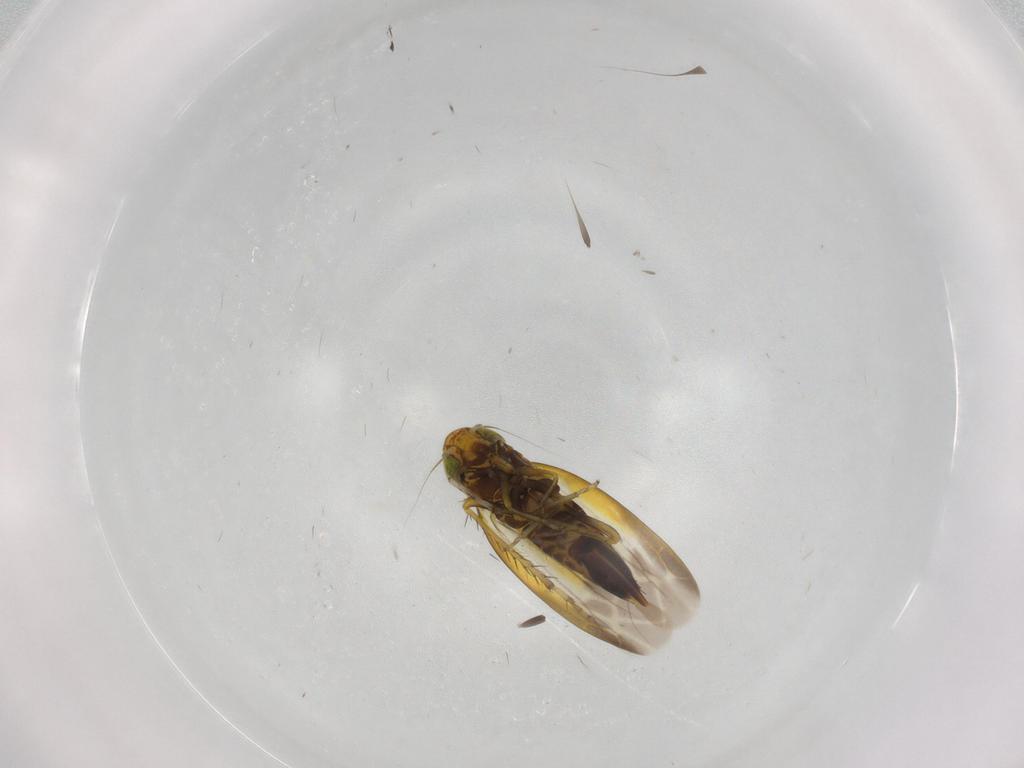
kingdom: Animalia
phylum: Arthropoda
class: Insecta
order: Hemiptera
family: Cicadellidae
